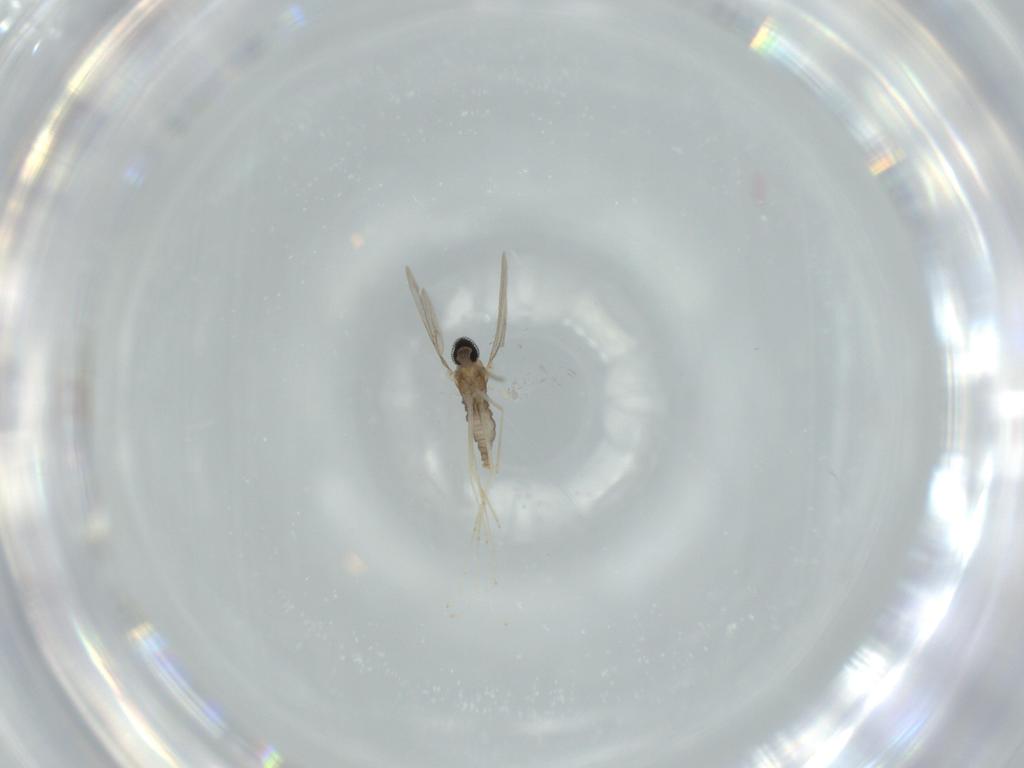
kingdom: Animalia
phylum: Arthropoda
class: Insecta
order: Diptera
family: Cecidomyiidae
